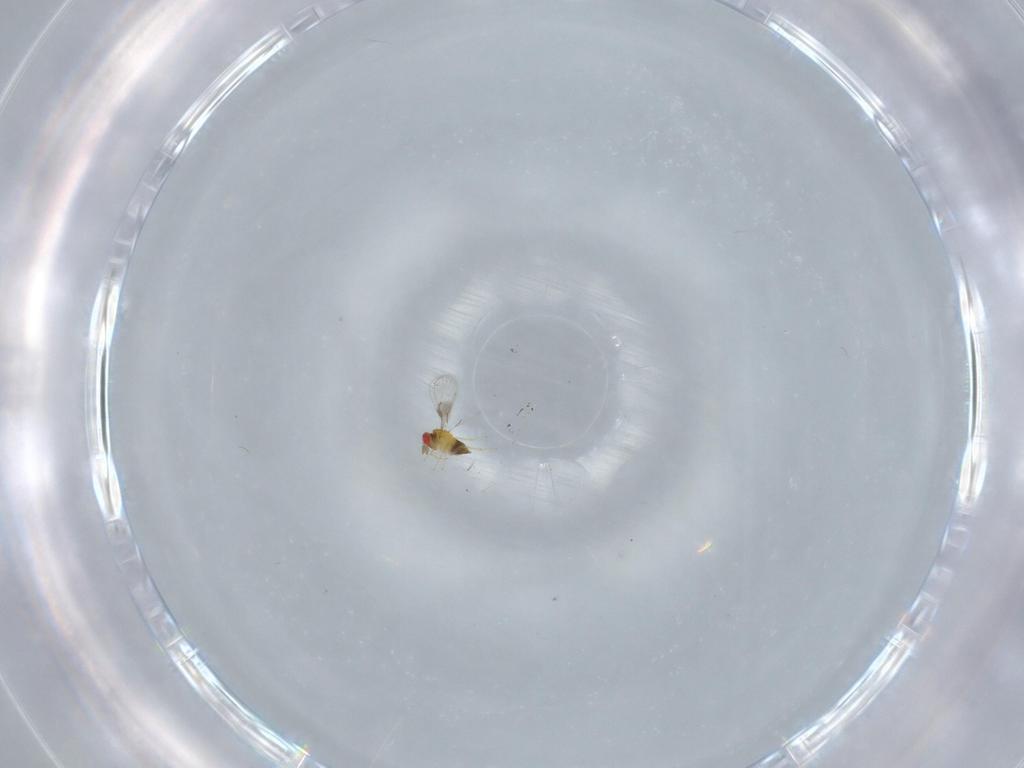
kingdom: Animalia
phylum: Arthropoda
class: Insecta
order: Hymenoptera
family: Trichogrammatidae
